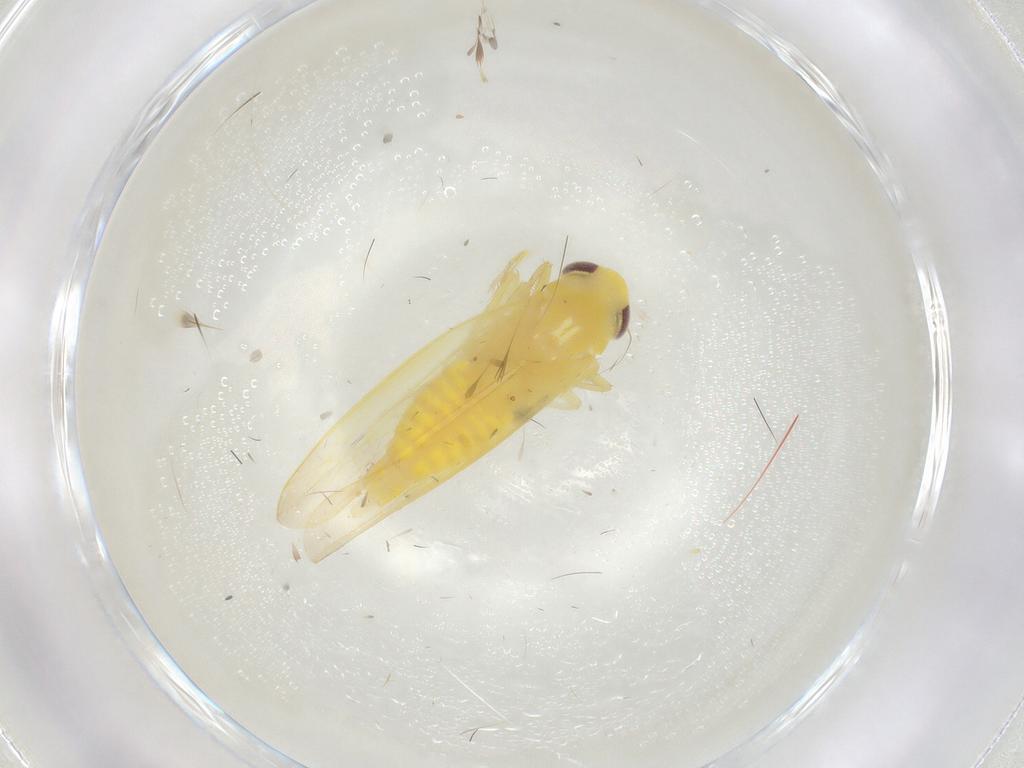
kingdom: Animalia
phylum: Arthropoda
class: Insecta
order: Hemiptera
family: Cicadellidae
